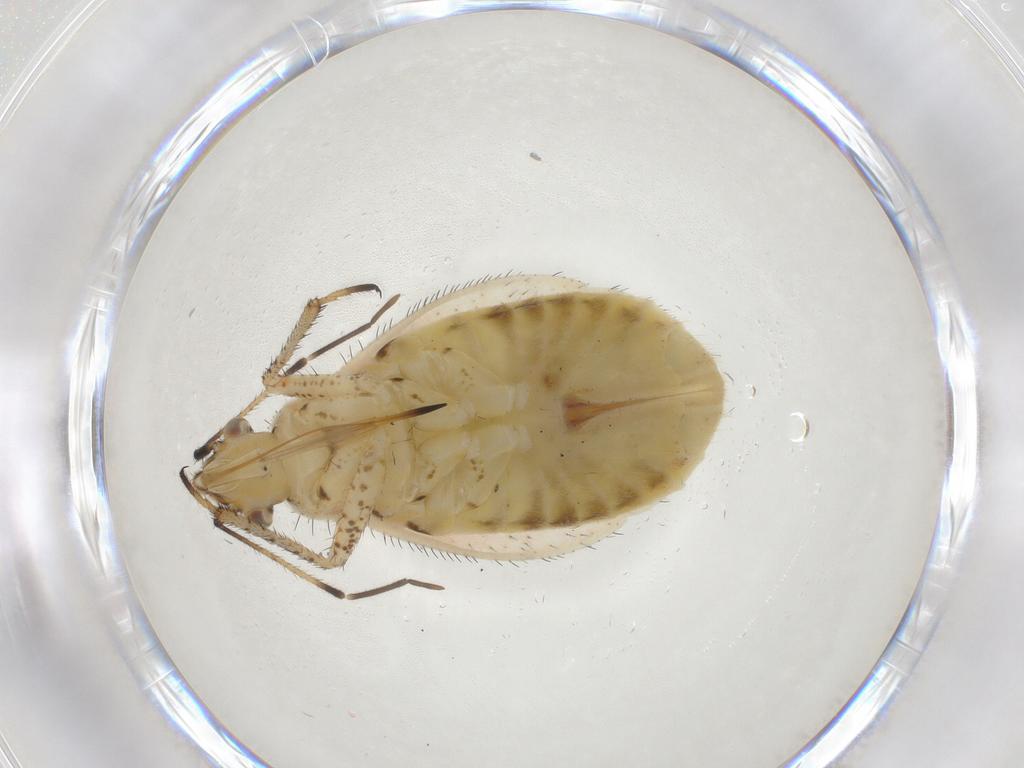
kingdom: Animalia
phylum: Arthropoda
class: Insecta
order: Hemiptera
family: Miridae
